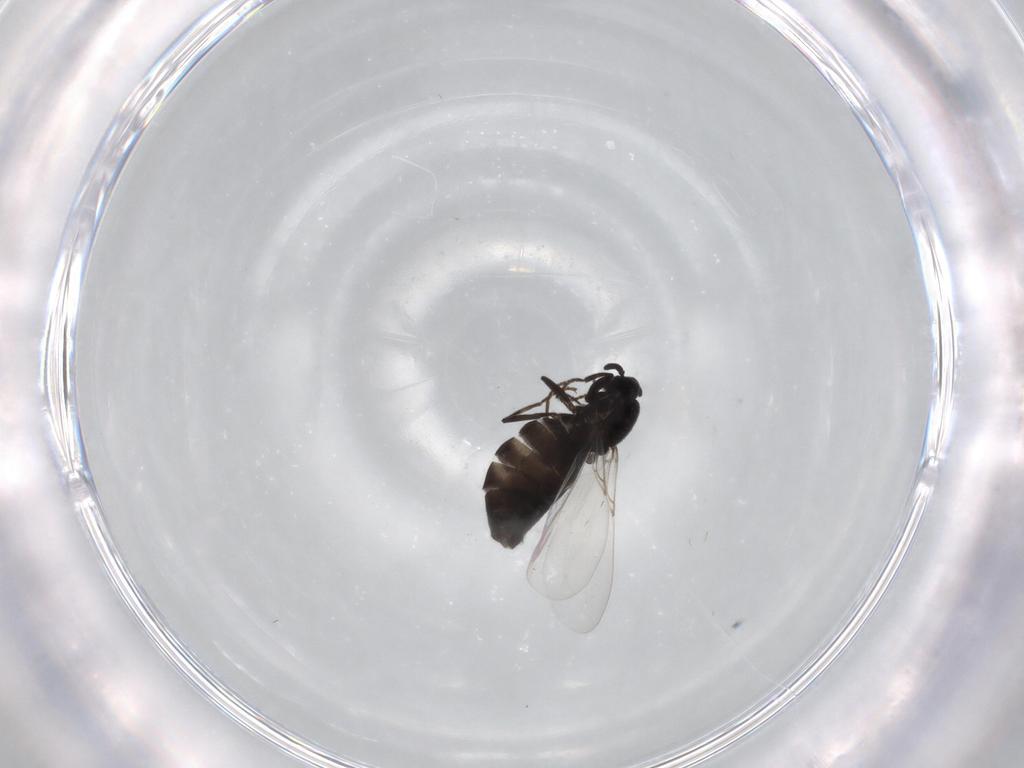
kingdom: Animalia
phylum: Arthropoda
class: Insecta
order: Diptera
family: Scatopsidae
